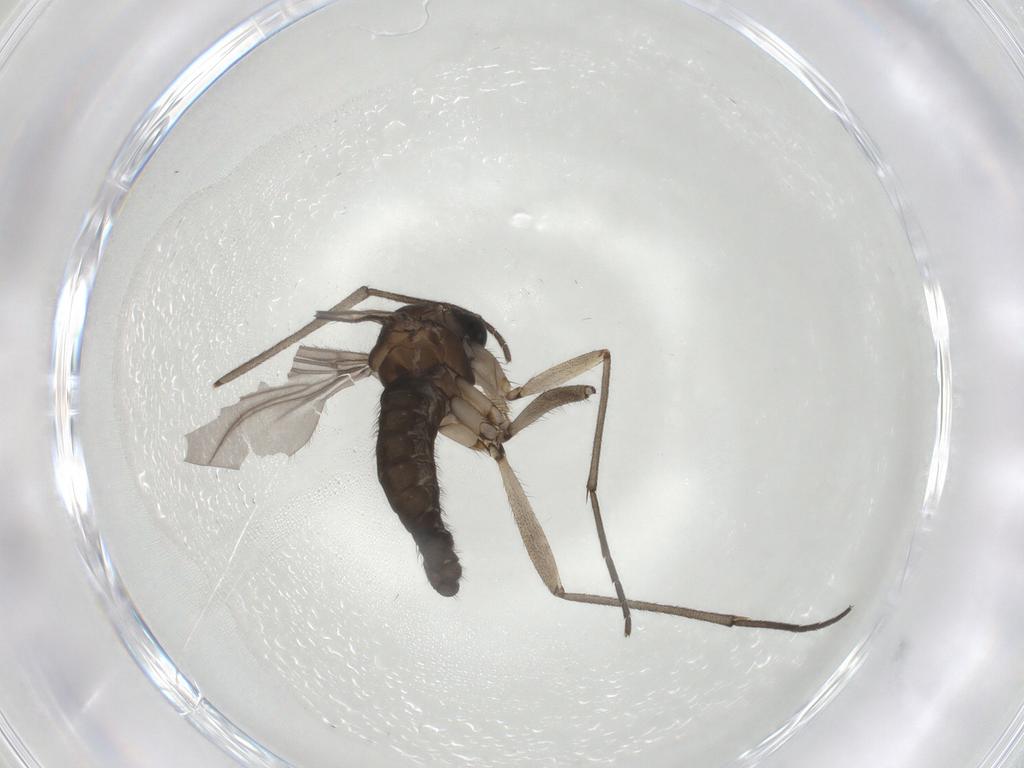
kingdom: Animalia
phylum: Arthropoda
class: Insecta
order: Diptera
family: Sciaridae
